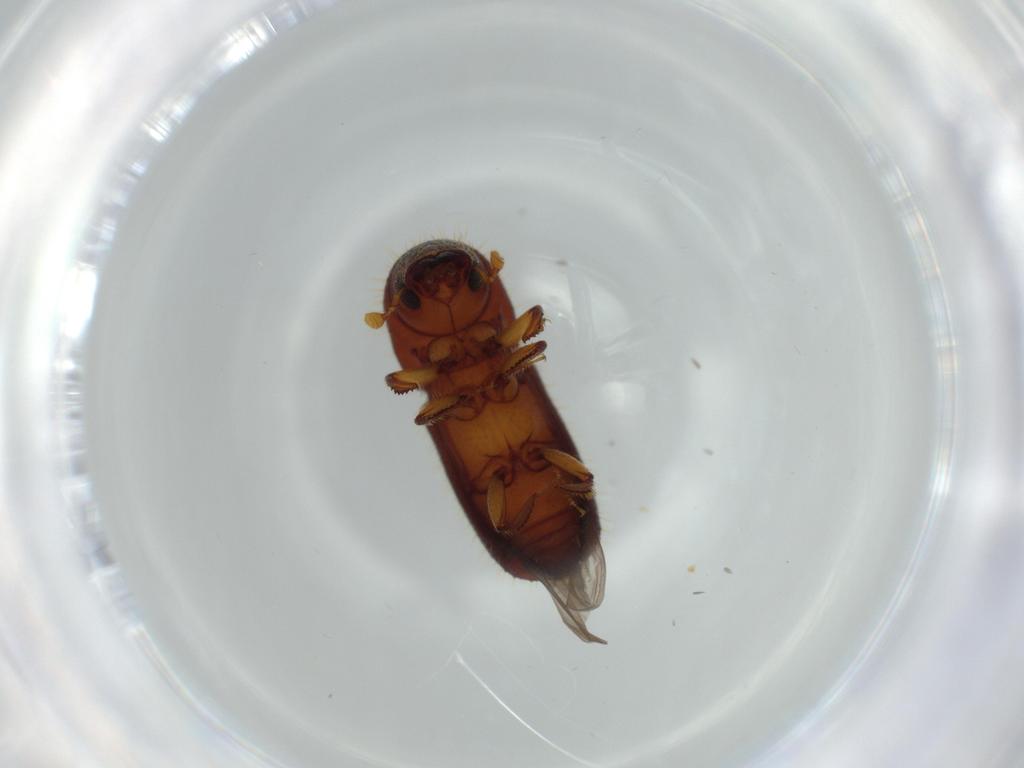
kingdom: Animalia
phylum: Arthropoda
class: Insecta
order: Coleoptera
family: Curculionidae
